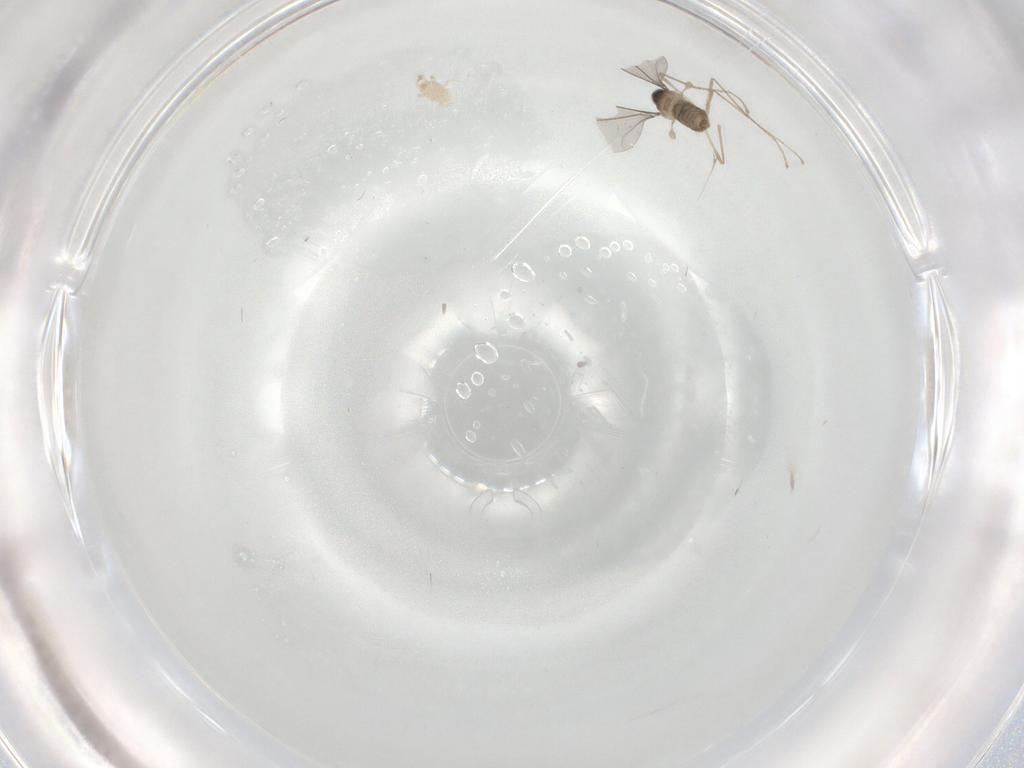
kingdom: Animalia
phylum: Arthropoda
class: Insecta
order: Diptera
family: Cecidomyiidae
